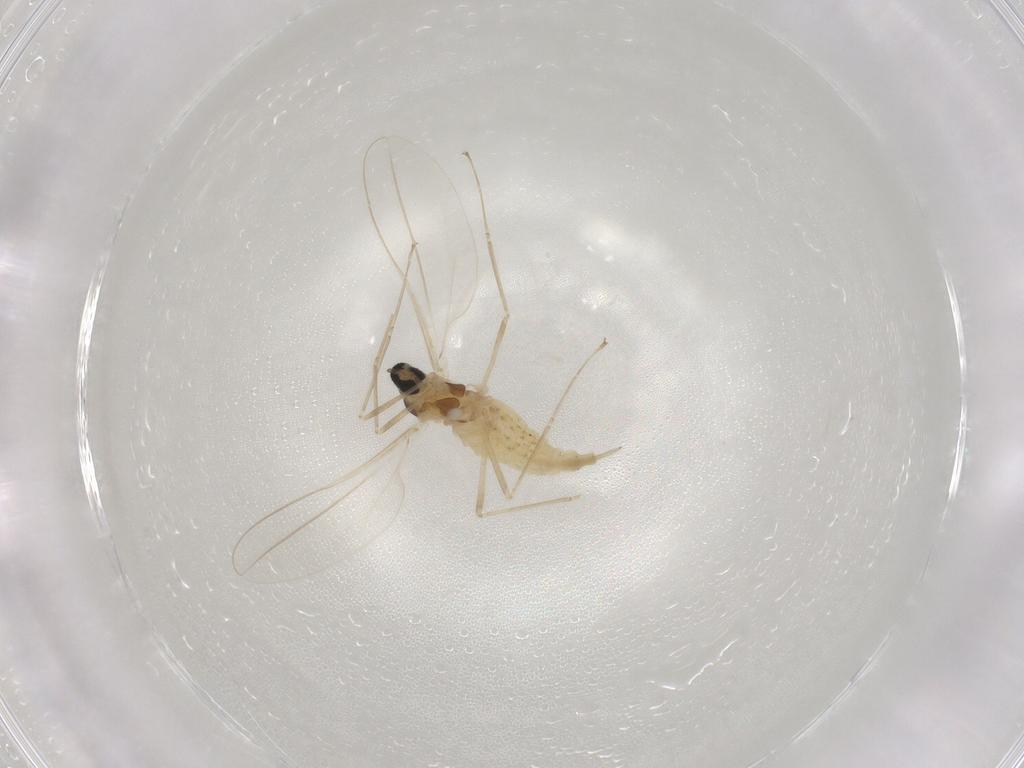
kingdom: Animalia
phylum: Arthropoda
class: Insecta
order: Diptera
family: Cecidomyiidae
